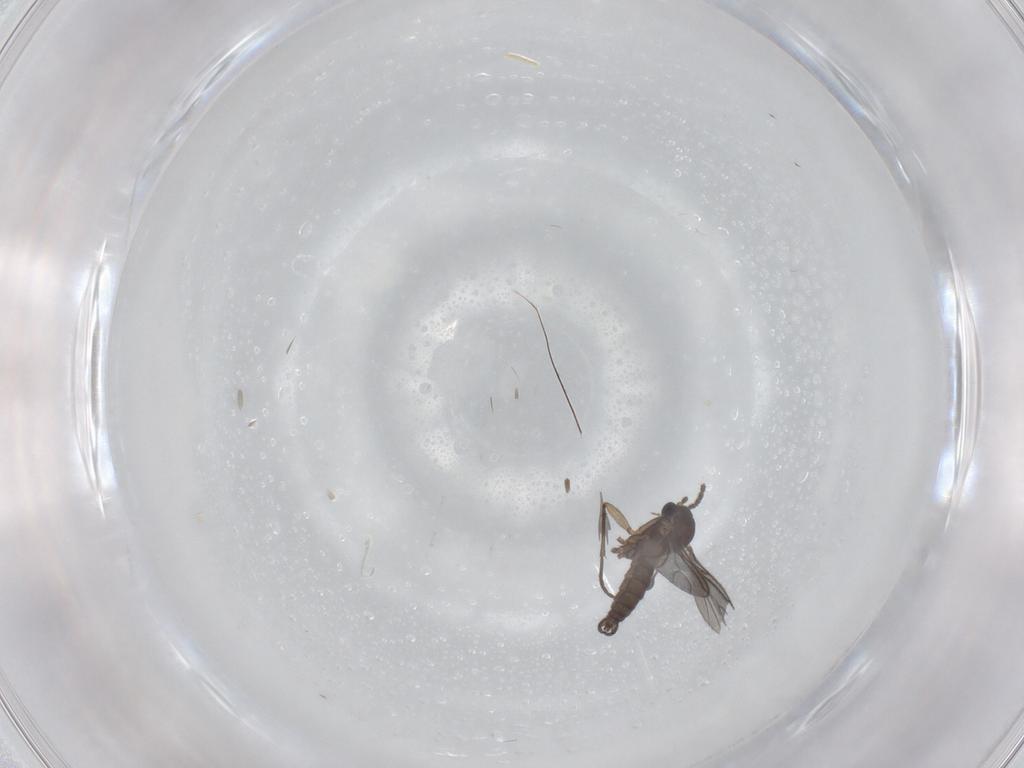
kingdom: Animalia
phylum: Arthropoda
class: Insecta
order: Diptera
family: Sciaridae
